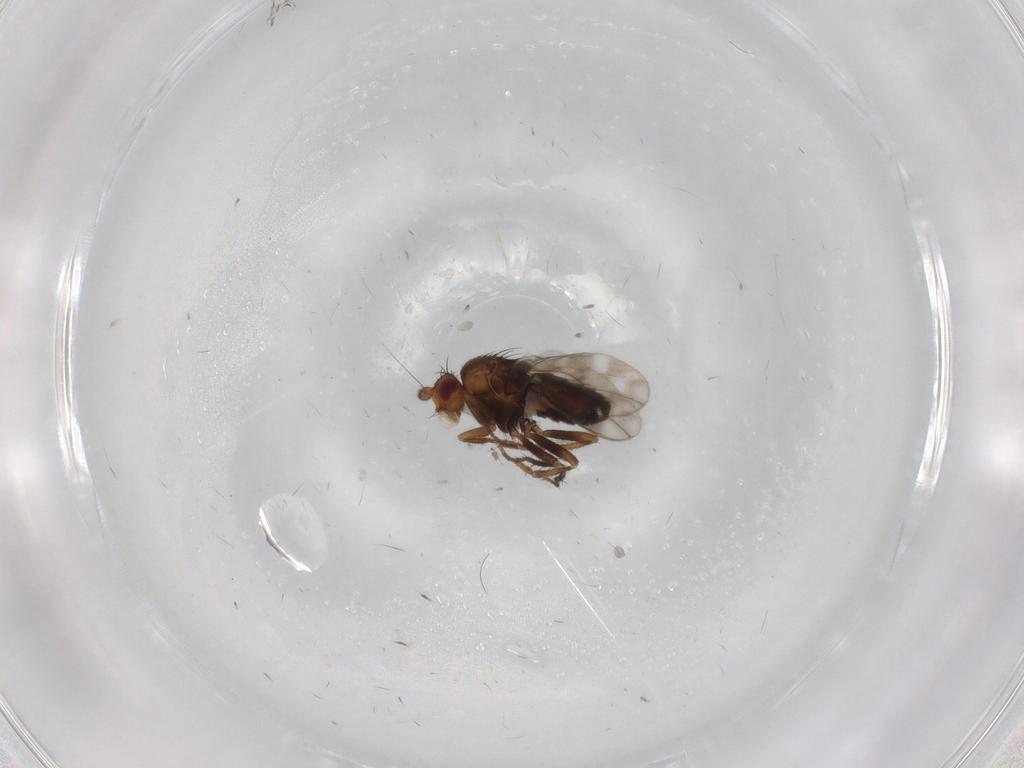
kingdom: Animalia
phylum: Arthropoda
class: Insecta
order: Diptera
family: Sphaeroceridae
